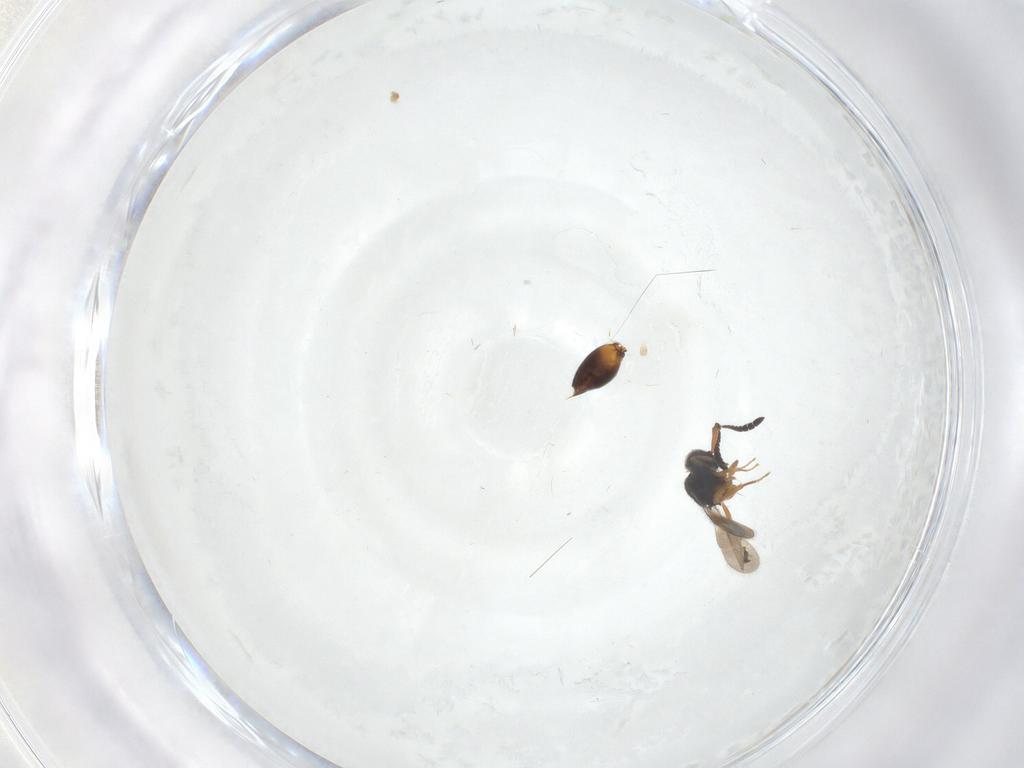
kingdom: Animalia
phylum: Arthropoda
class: Insecta
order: Hymenoptera
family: Ceraphronidae
